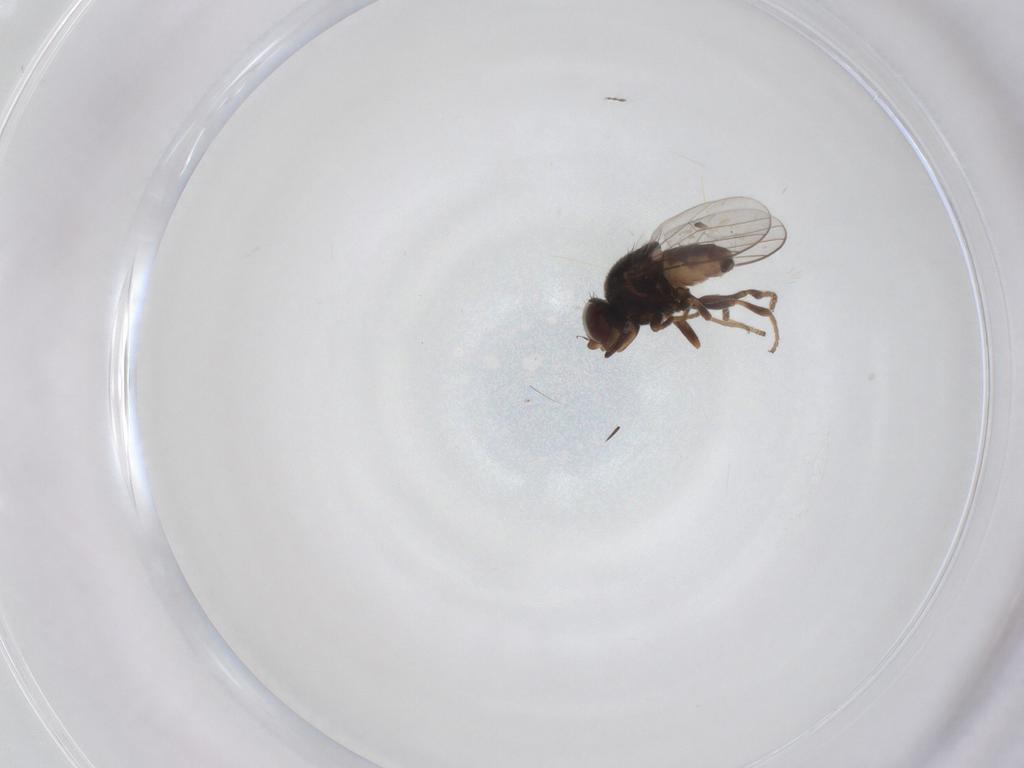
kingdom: Animalia
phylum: Arthropoda
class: Insecta
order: Diptera
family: Chloropidae
